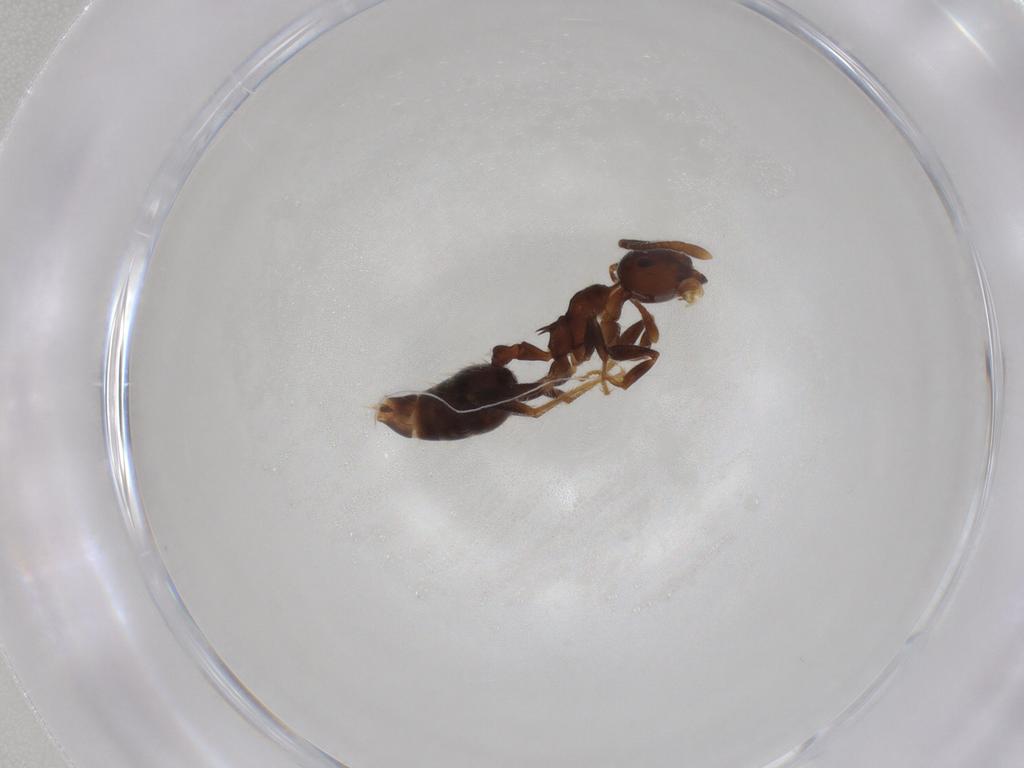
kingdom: Animalia
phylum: Arthropoda
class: Insecta
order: Hymenoptera
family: Formicidae
